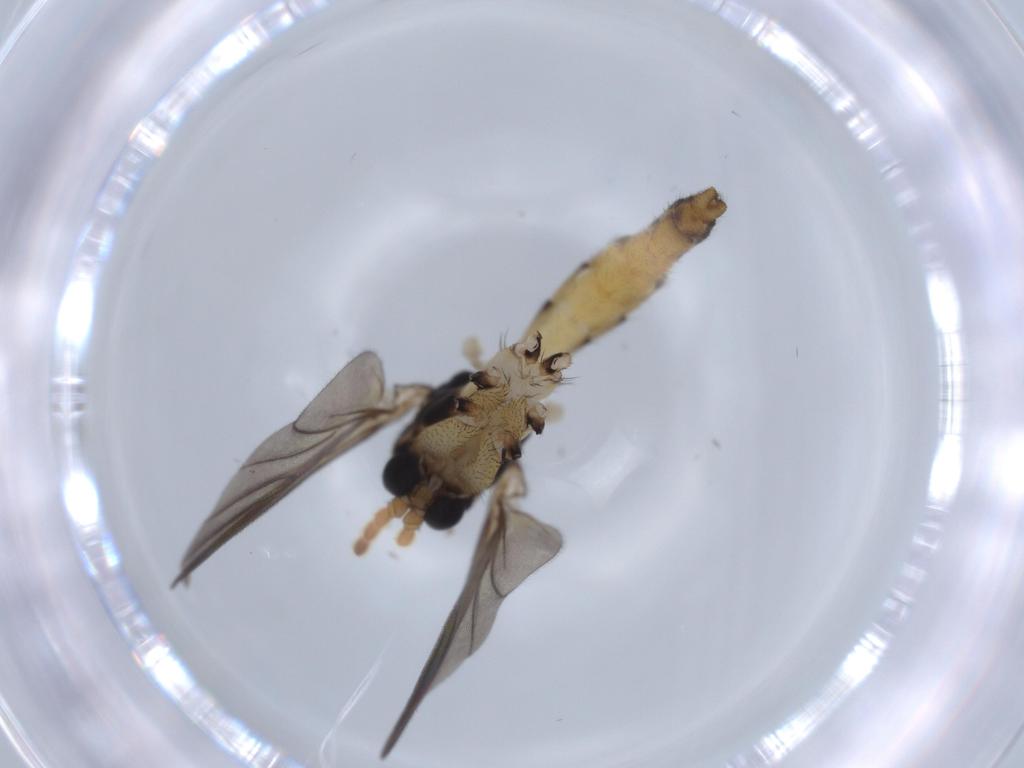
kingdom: Animalia
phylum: Arthropoda
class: Insecta
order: Diptera
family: Phoridae
